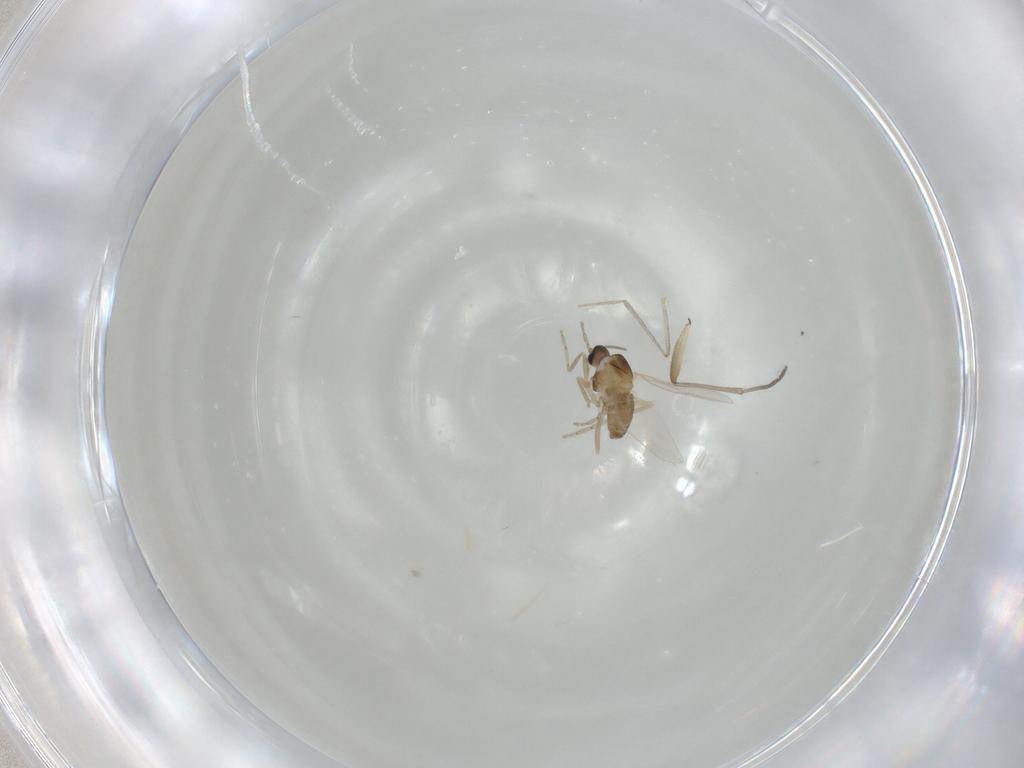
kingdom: Animalia
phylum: Arthropoda
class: Insecta
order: Diptera
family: Cecidomyiidae
